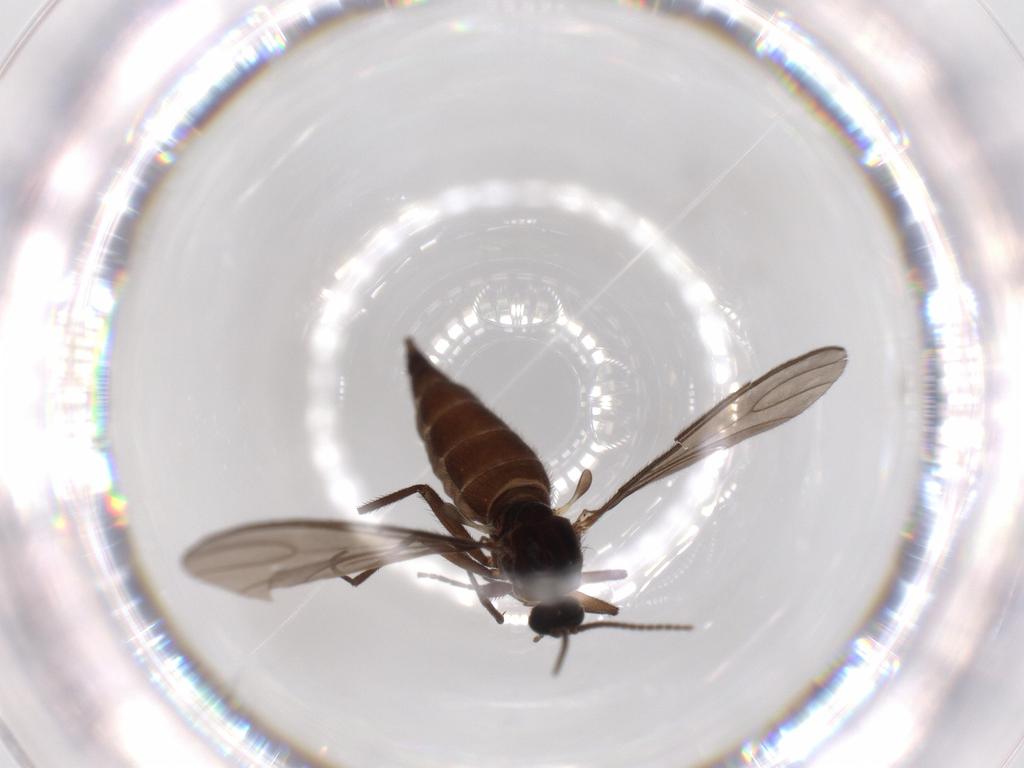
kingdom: Animalia
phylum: Arthropoda
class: Insecta
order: Diptera
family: Sciaridae
